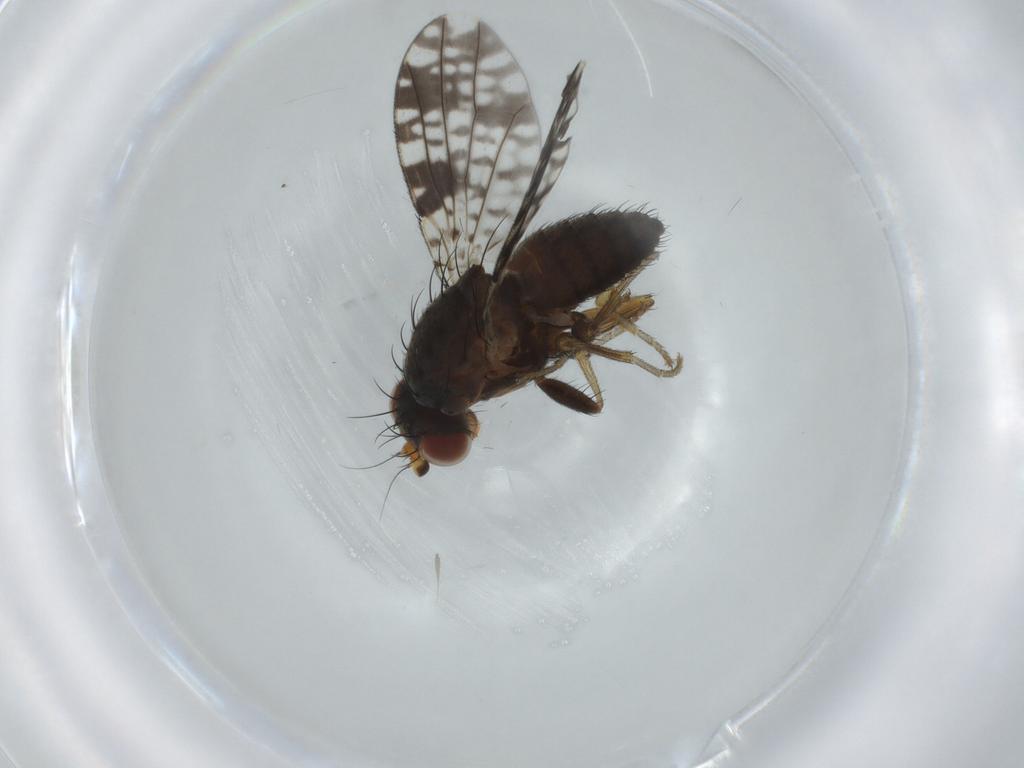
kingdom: Animalia
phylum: Arthropoda
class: Insecta
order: Diptera
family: Tephritidae
